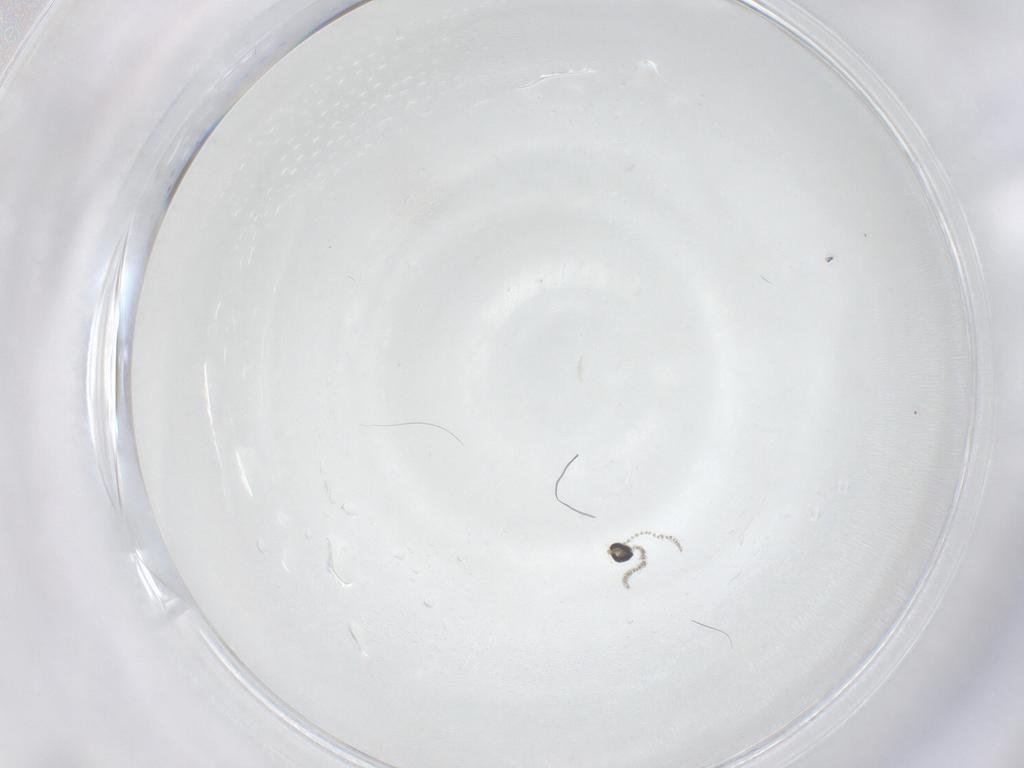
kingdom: Animalia
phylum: Arthropoda
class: Insecta
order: Diptera
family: Cecidomyiidae
